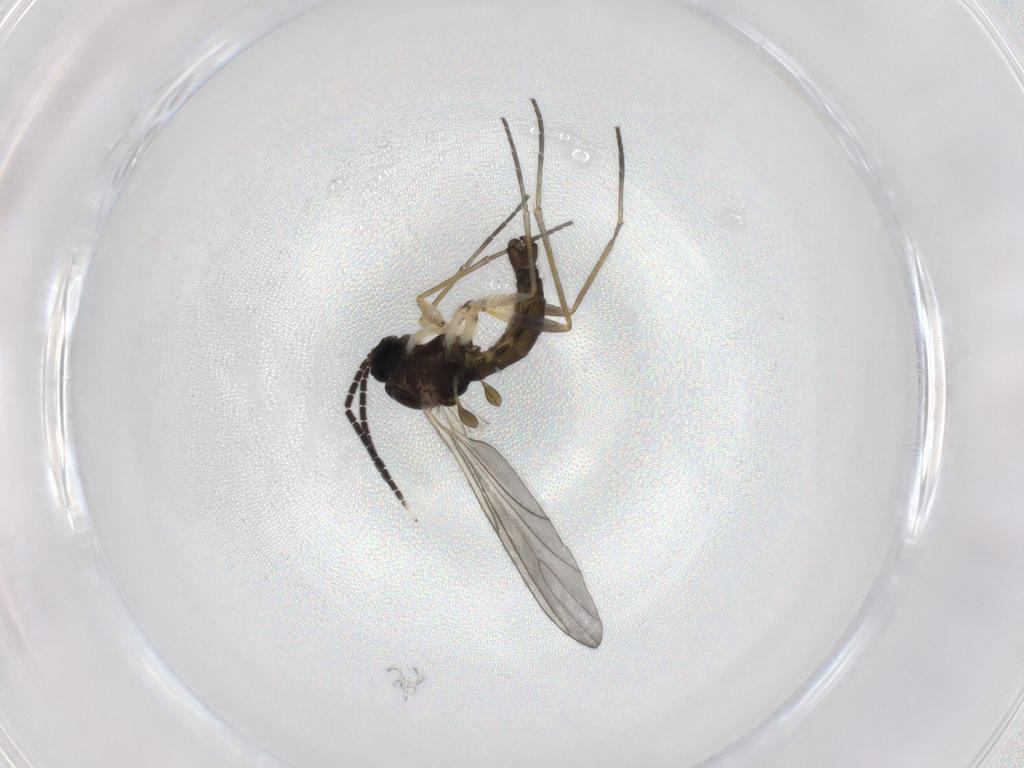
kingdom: Animalia
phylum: Arthropoda
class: Insecta
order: Diptera
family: Sciaridae
